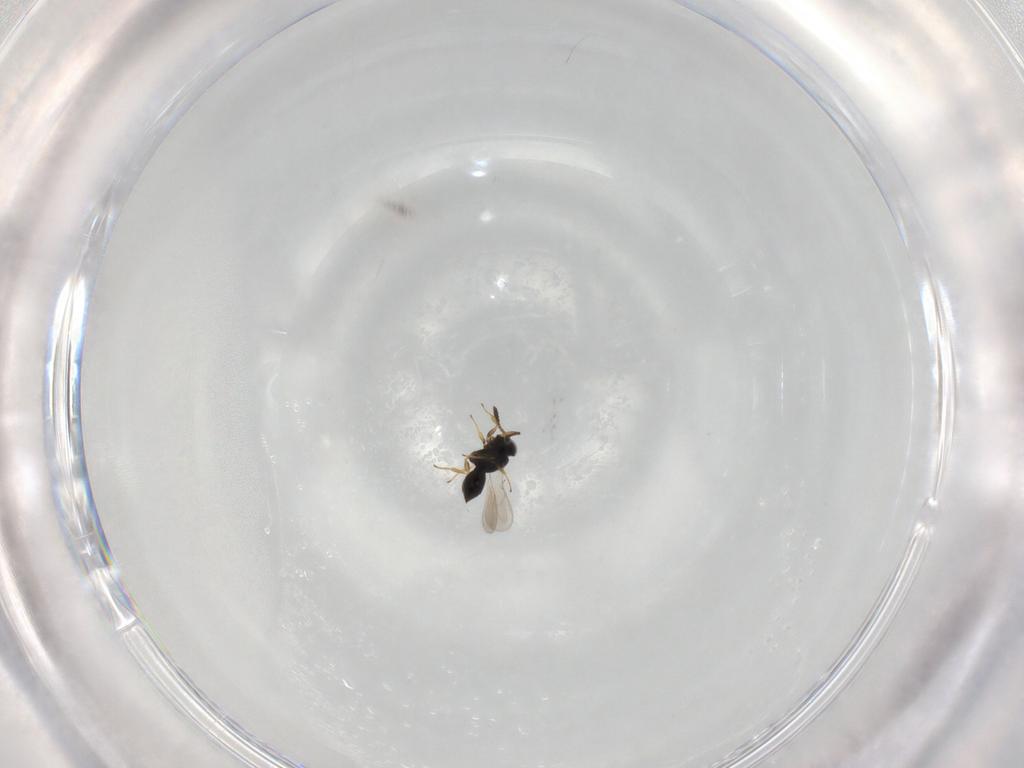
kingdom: Animalia
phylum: Arthropoda
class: Insecta
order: Hymenoptera
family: Scelionidae
